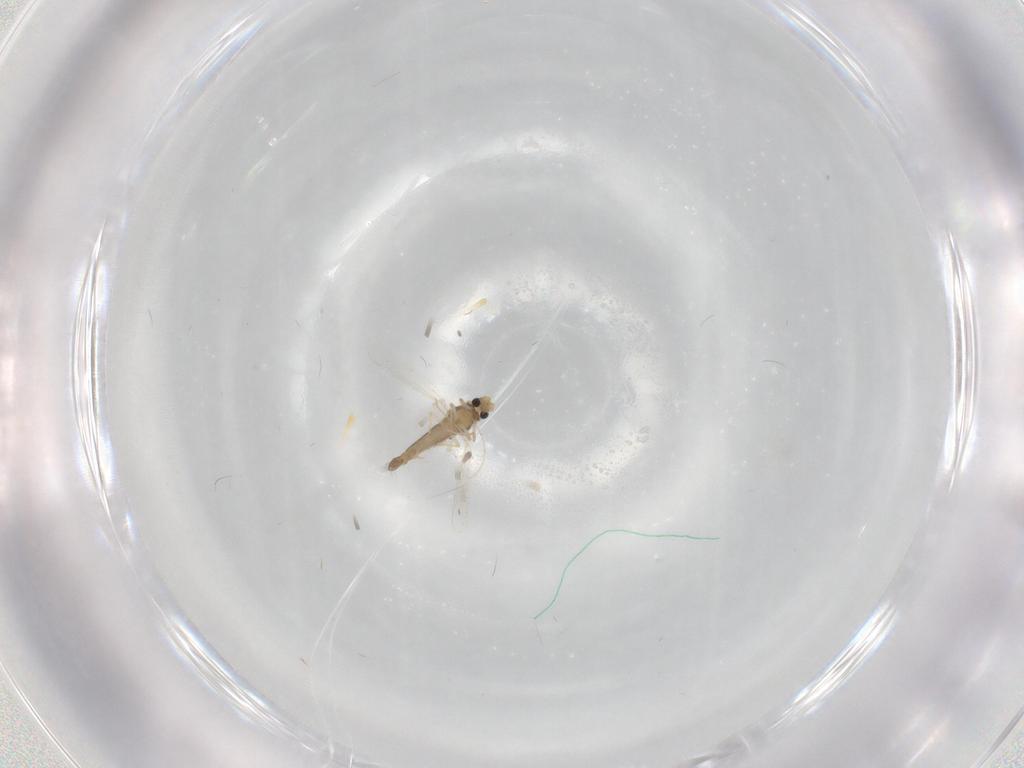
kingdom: Animalia
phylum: Arthropoda
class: Insecta
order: Diptera
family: Chironomidae
